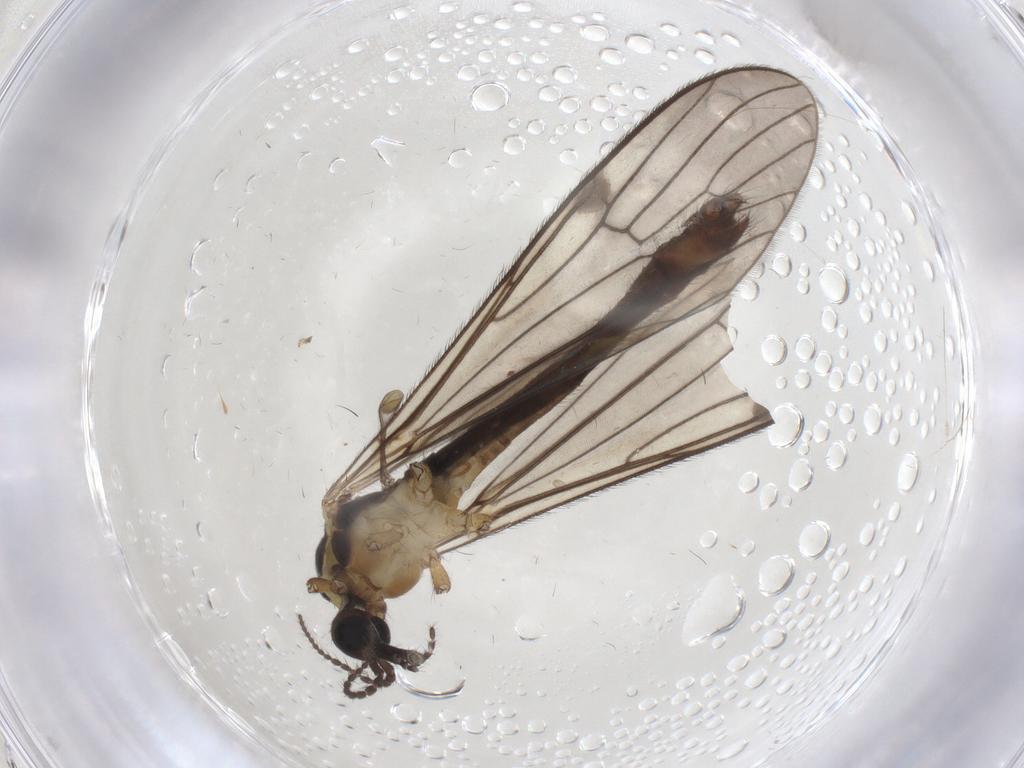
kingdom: Animalia
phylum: Arthropoda
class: Insecta
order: Diptera
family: Limoniidae
